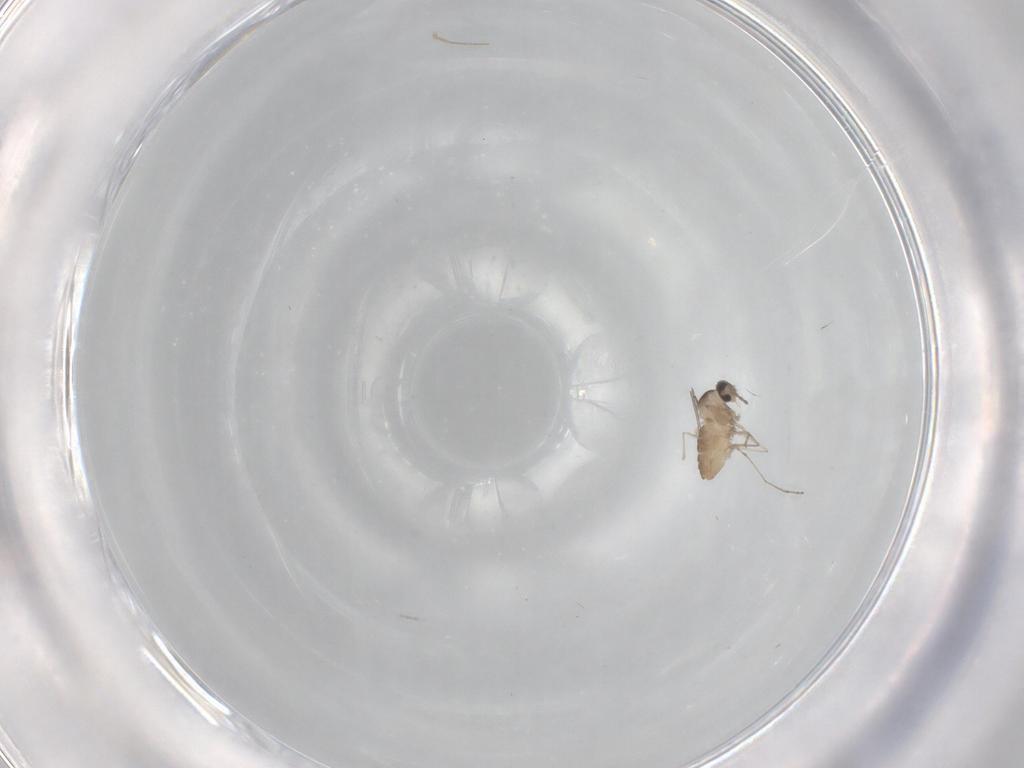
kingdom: Animalia
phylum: Arthropoda
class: Insecta
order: Diptera
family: Cecidomyiidae
